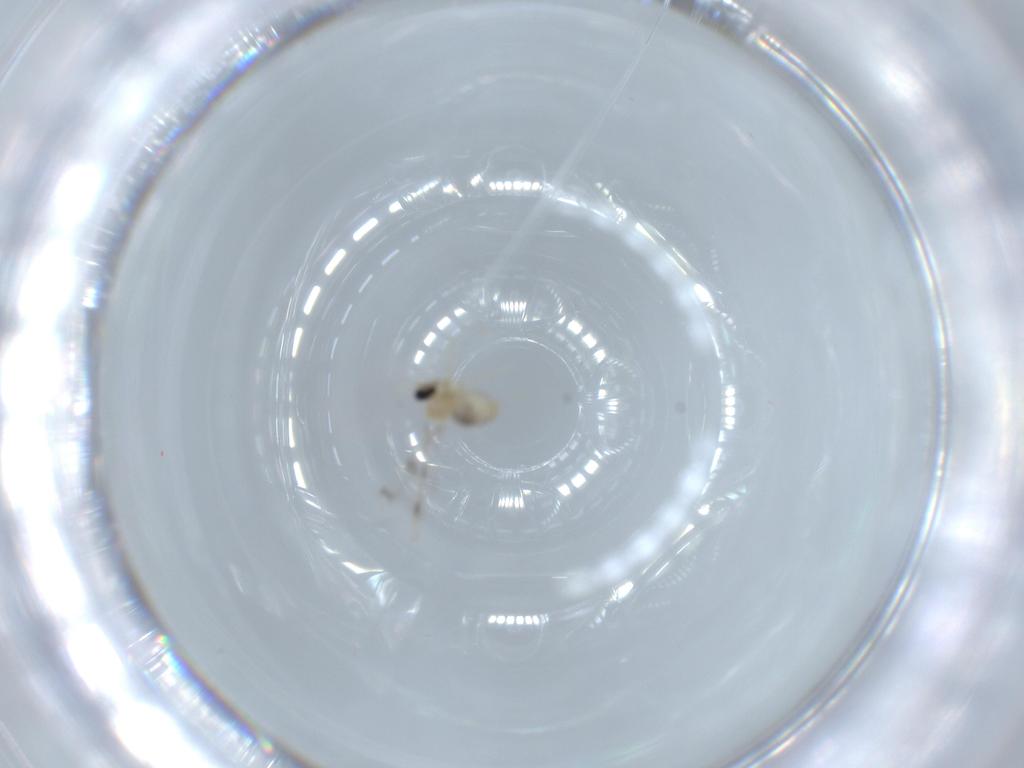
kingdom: Animalia
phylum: Arthropoda
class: Insecta
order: Diptera
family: Cecidomyiidae
